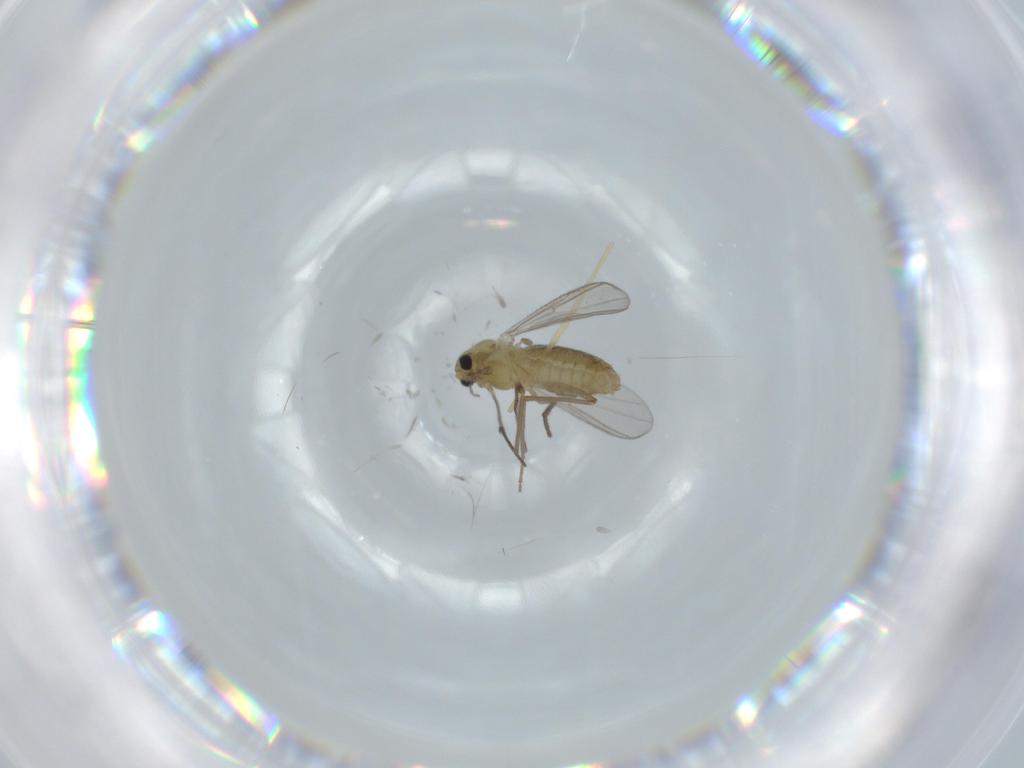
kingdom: Animalia
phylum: Arthropoda
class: Insecta
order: Diptera
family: Chironomidae
